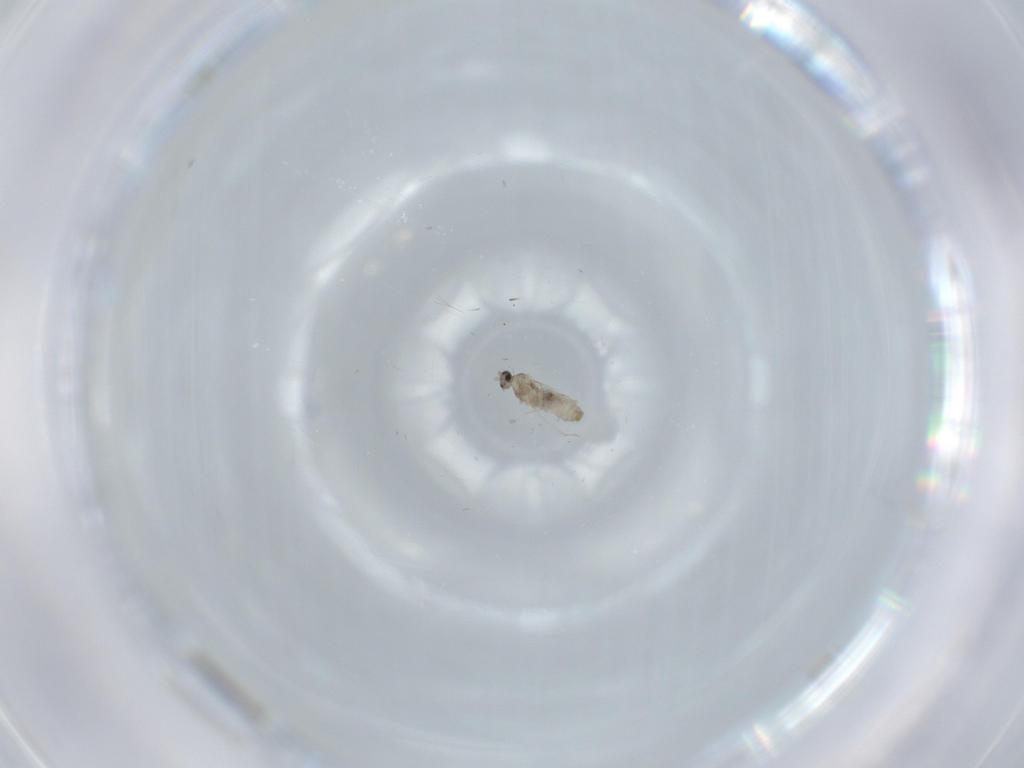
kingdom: Animalia
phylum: Arthropoda
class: Insecta
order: Diptera
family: Cecidomyiidae
